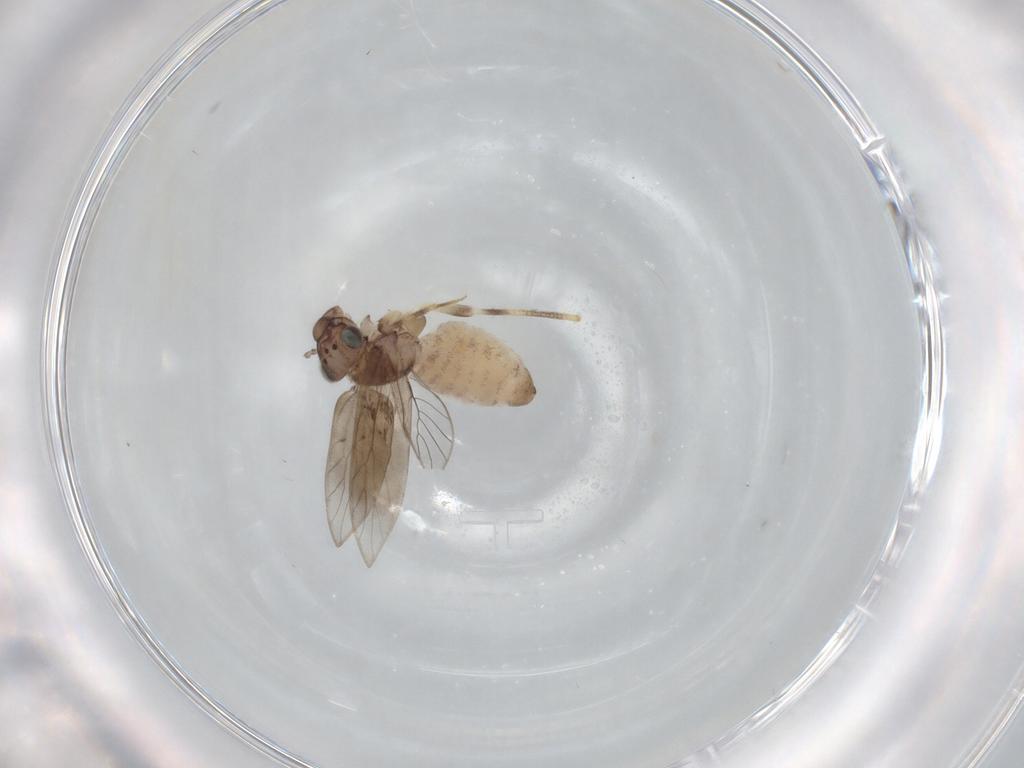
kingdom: Animalia
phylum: Arthropoda
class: Insecta
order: Psocodea
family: Lepidopsocidae
